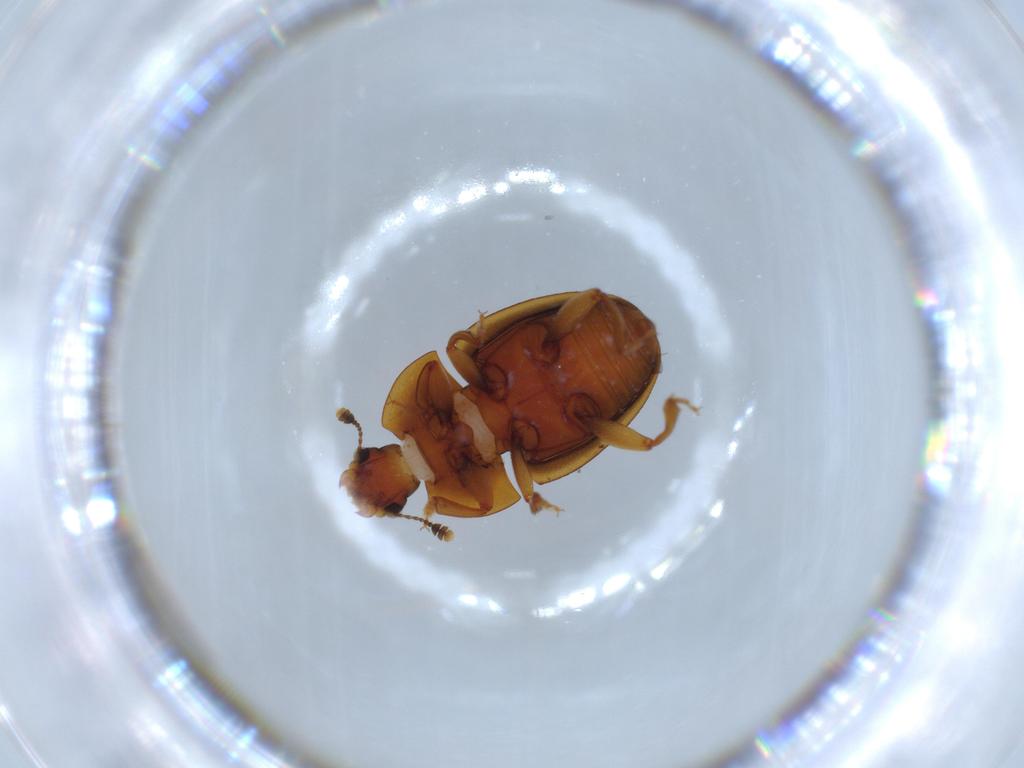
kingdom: Animalia
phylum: Arthropoda
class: Insecta
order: Coleoptera
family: Nitidulidae
